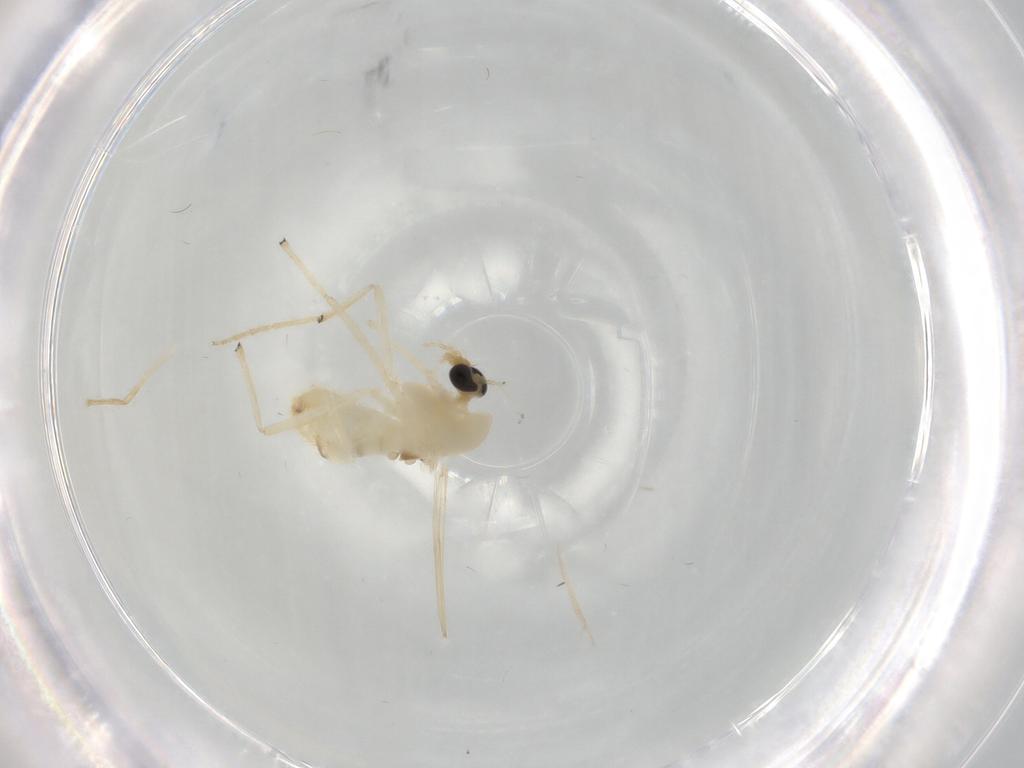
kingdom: Animalia
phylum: Arthropoda
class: Insecta
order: Diptera
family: Chironomidae
